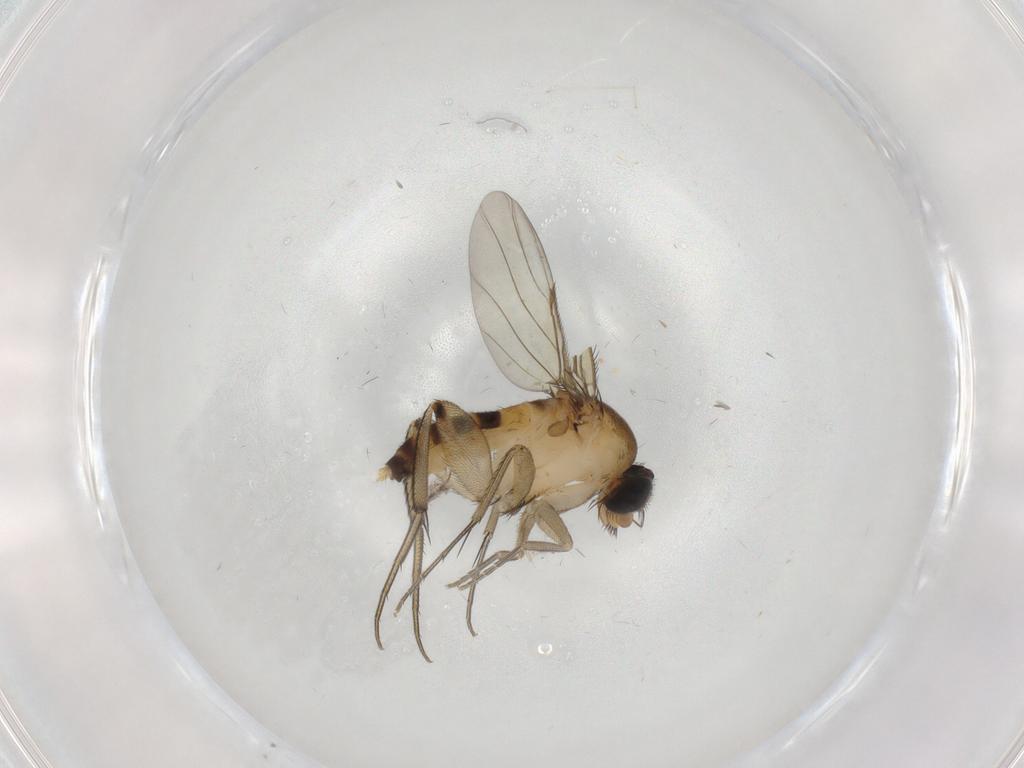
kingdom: Animalia
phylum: Arthropoda
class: Insecta
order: Diptera
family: Phoridae
